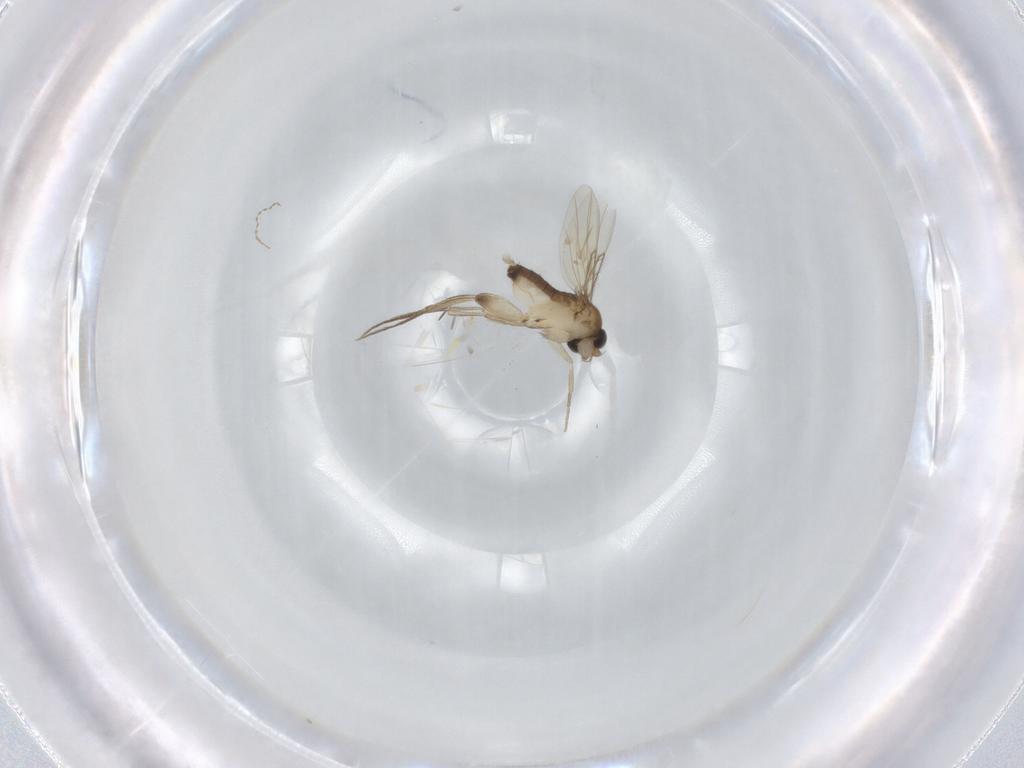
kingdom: Animalia
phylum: Arthropoda
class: Insecta
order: Diptera
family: Phoridae
